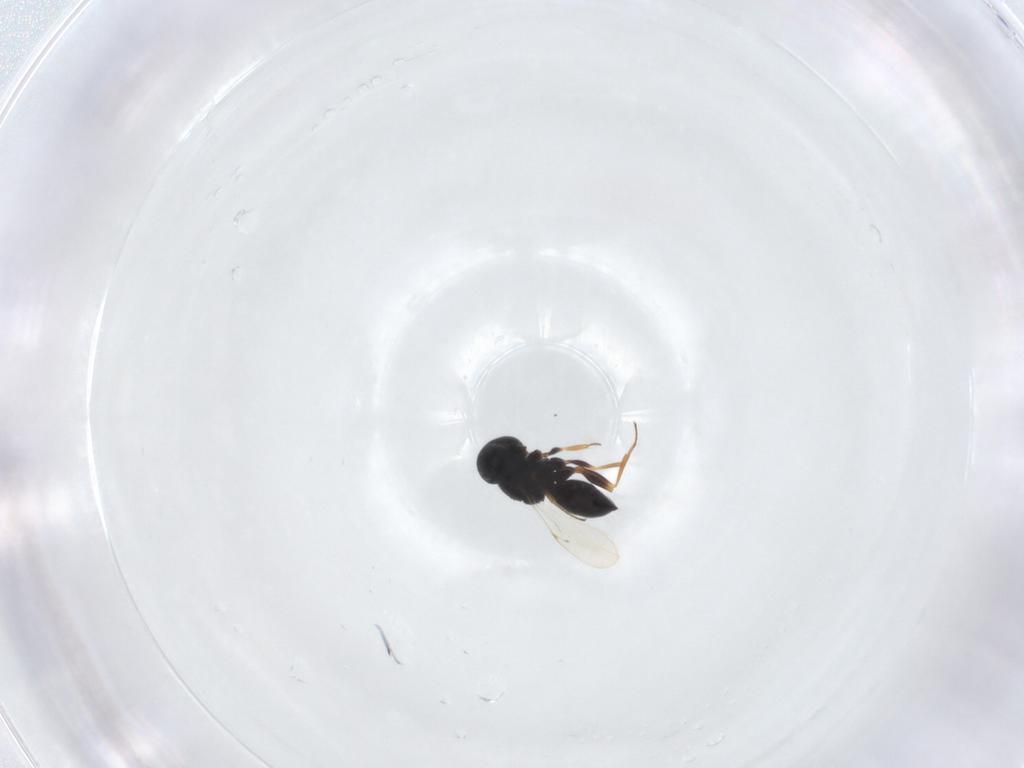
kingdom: Animalia
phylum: Arthropoda
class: Insecta
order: Hymenoptera
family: Scelionidae
